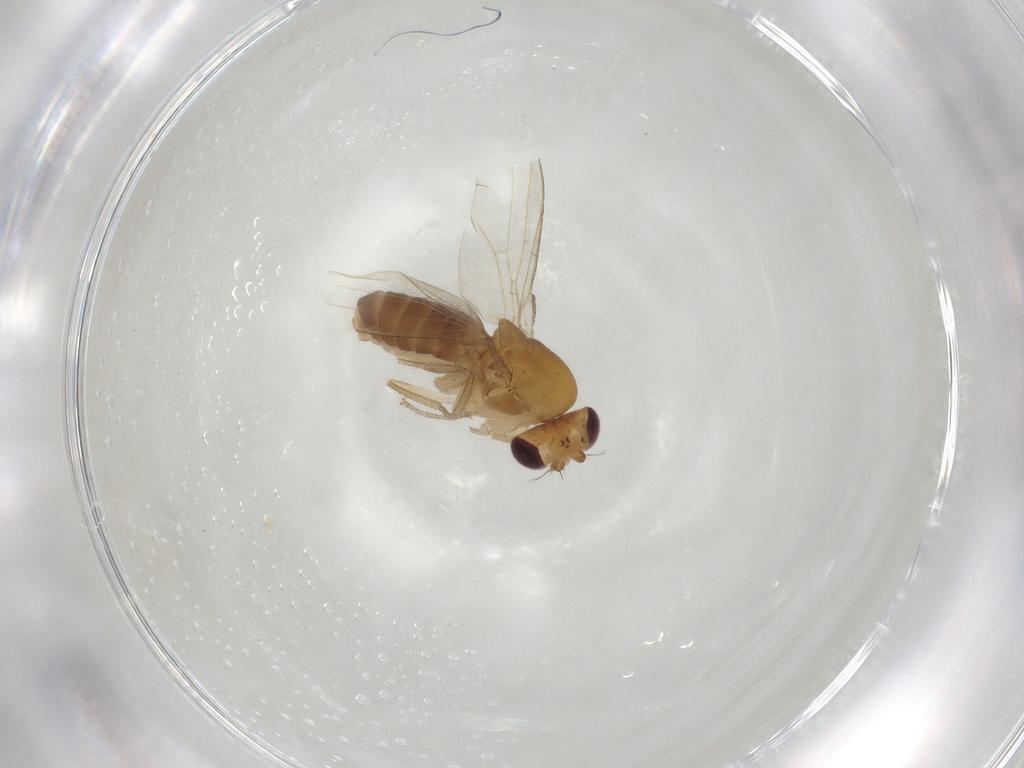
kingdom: Animalia
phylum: Arthropoda
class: Insecta
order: Diptera
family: Drosophilidae
